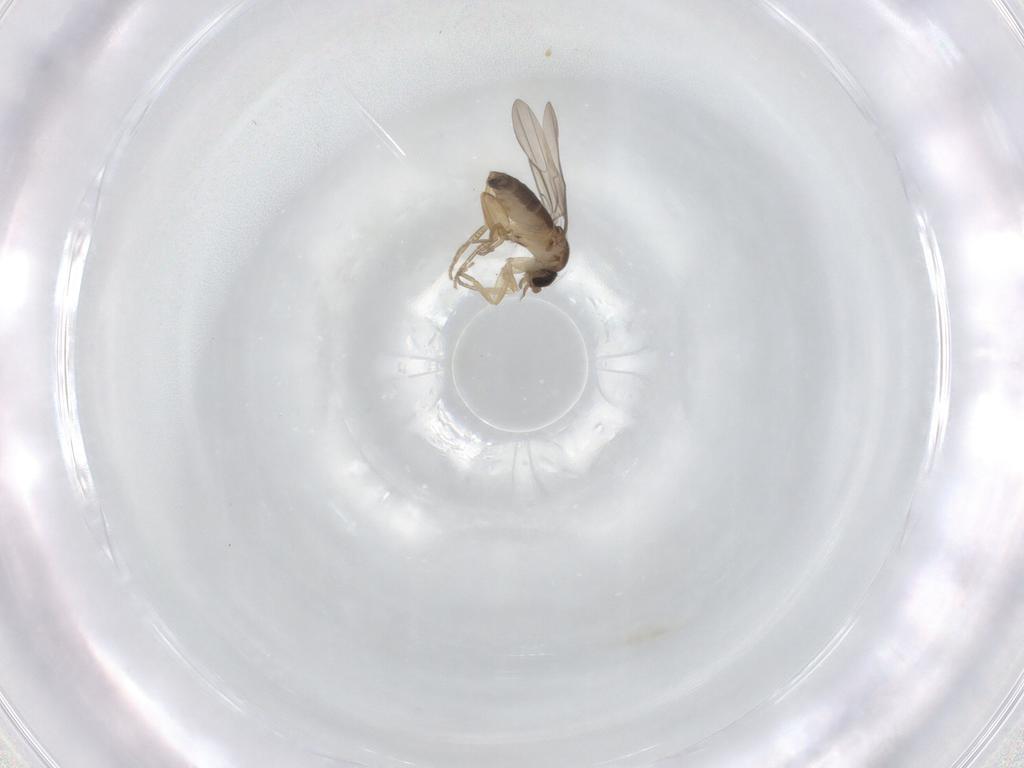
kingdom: Animalia
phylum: Arthropoda
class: Insecta
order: Diptera
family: Phoridae
